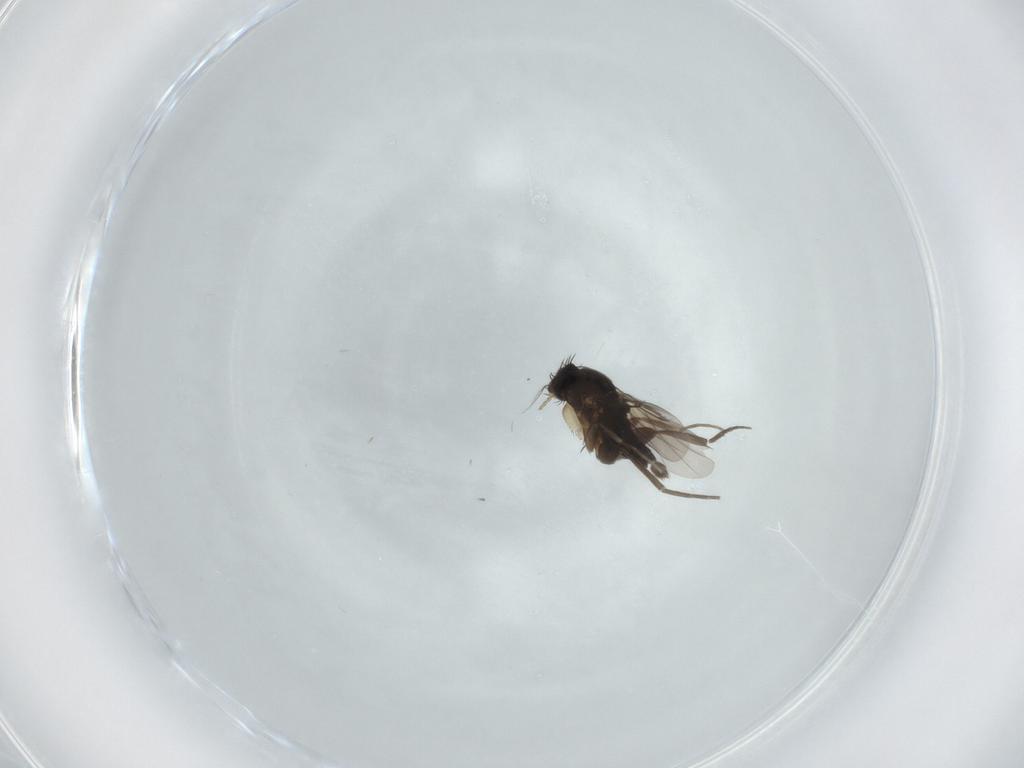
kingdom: Animalia
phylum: Arthropoda
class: Insecta
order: Diptera
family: Phoridae
